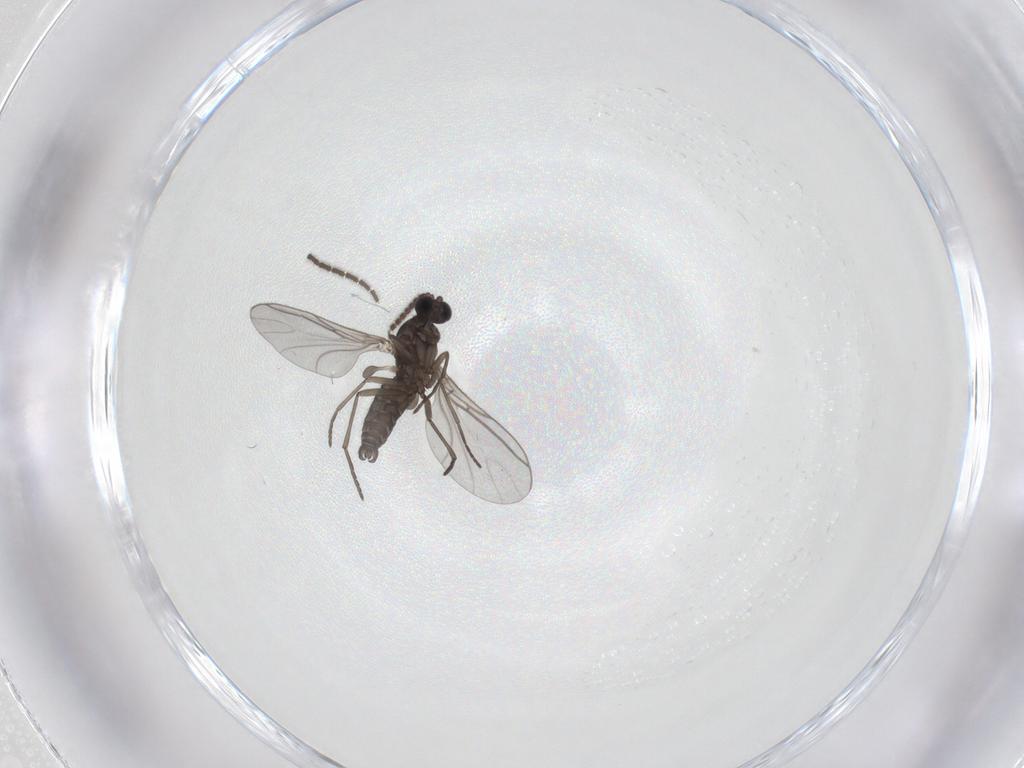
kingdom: Animalia
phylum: Arthropoda
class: Insecta
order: Diptera
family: Sciaridae
